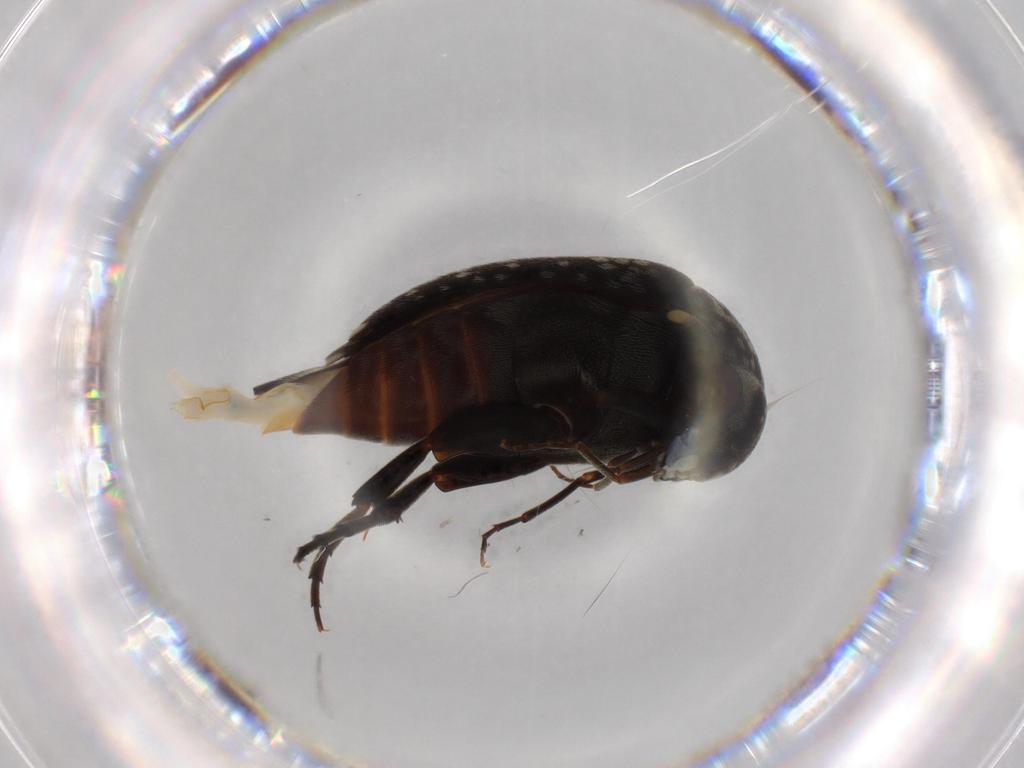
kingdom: Animalia
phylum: Arthropoda
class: Insecta
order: Coleoptera
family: Mordellidae
